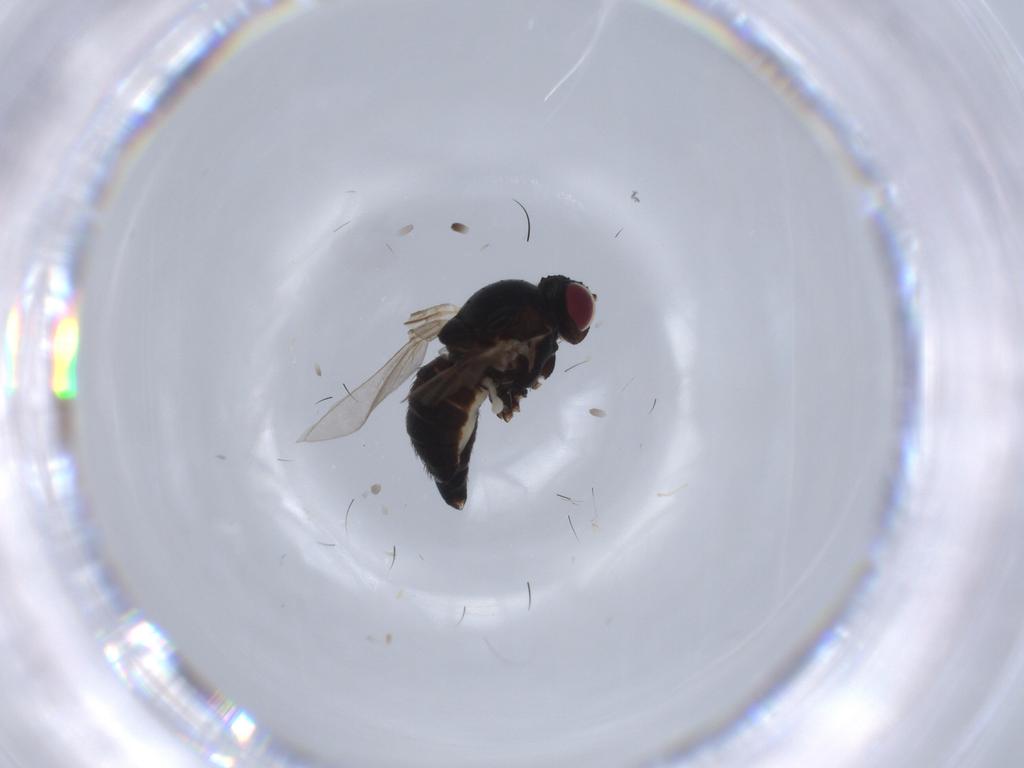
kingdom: Animalia
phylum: Arthropoda
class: Insecta
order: Diptera
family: Agromyzidae
